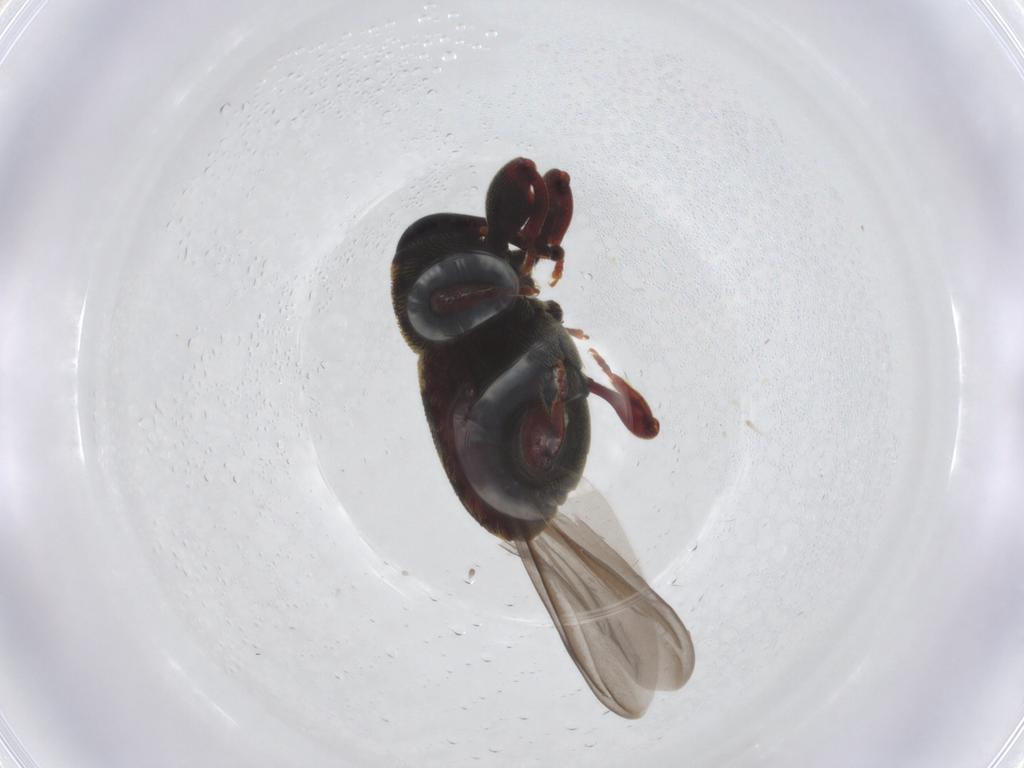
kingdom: Animalia
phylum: Arthropoda
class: Insecta
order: Coleoptera
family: Curculionidae
